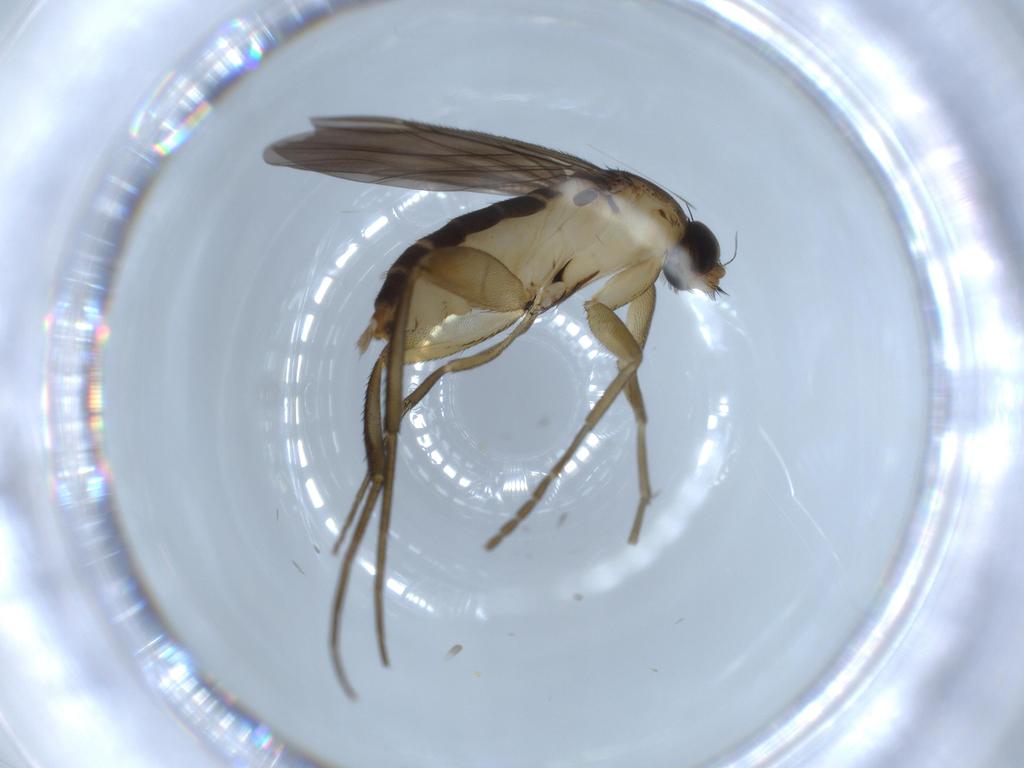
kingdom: Animalia
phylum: Arthropoda
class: Insecta
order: Diptera
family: Phoridae
